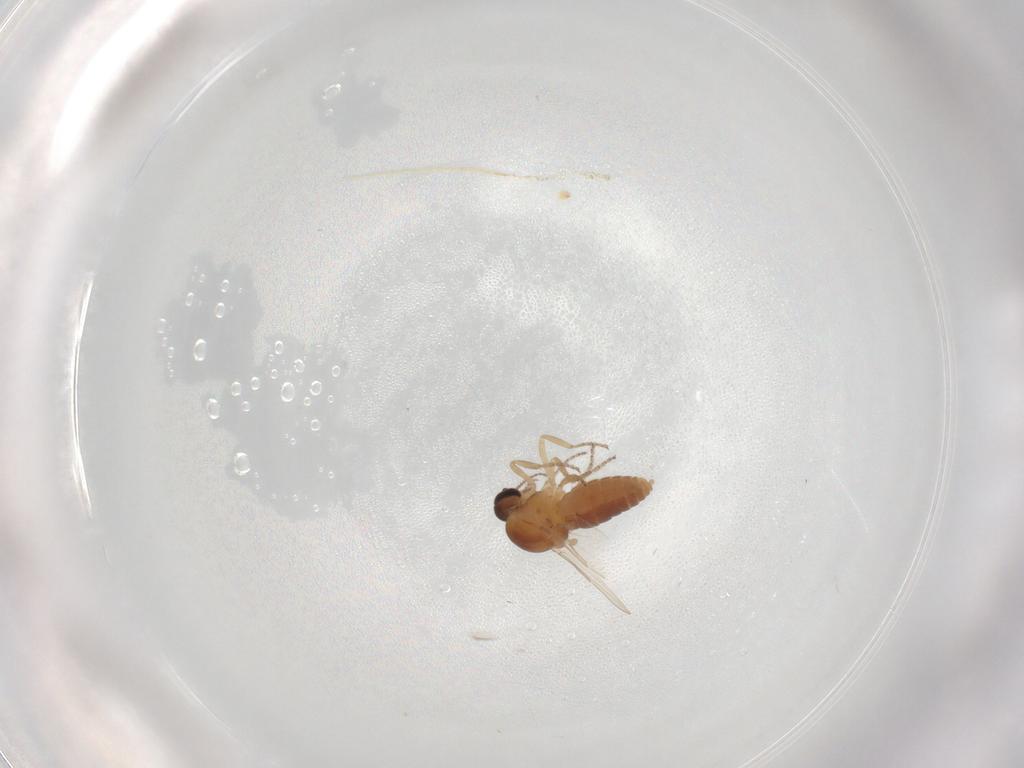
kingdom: Animalia
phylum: Arthropoda
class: Insecta
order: Diptera
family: Ceratopogonidae
